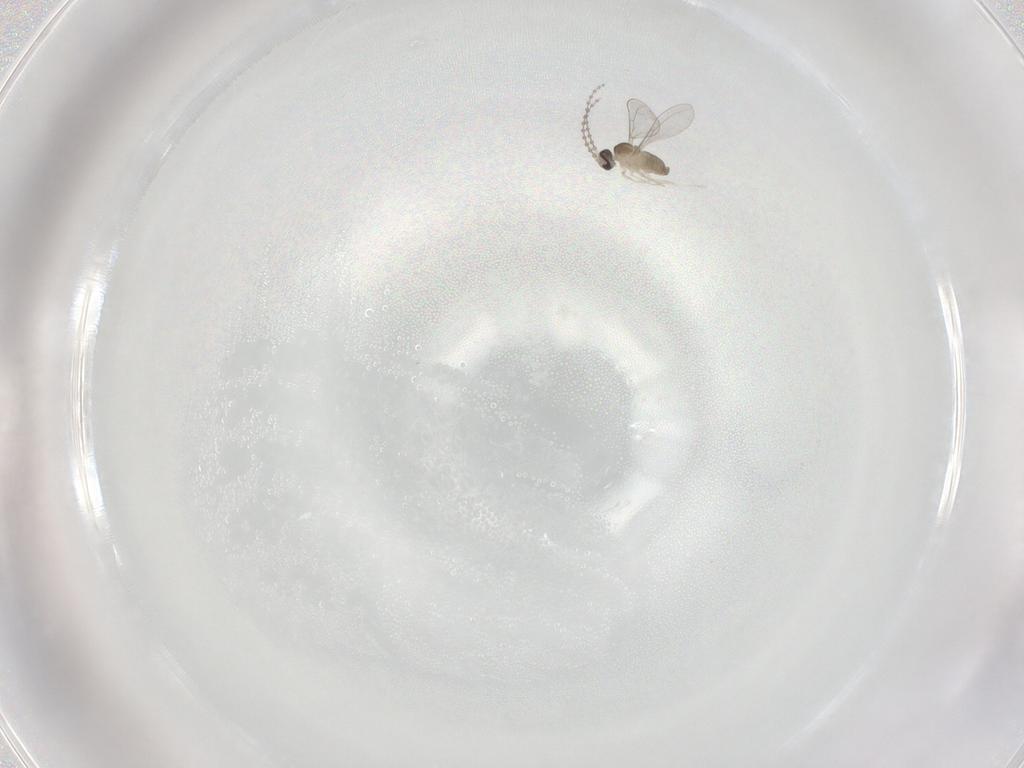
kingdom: Animalia
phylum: Arthropoda
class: Insecta
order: Diptera
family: Cecidomyiidae
